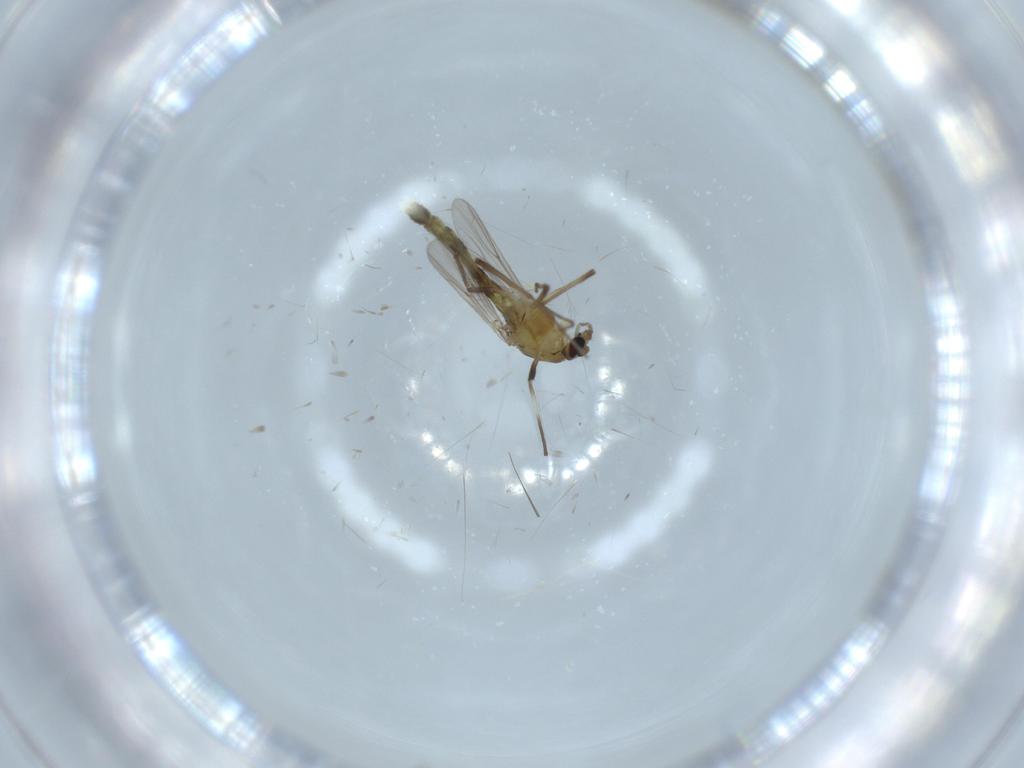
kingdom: Animalia
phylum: Arthropoda
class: Insecta
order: Diptera
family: Chironomidae
